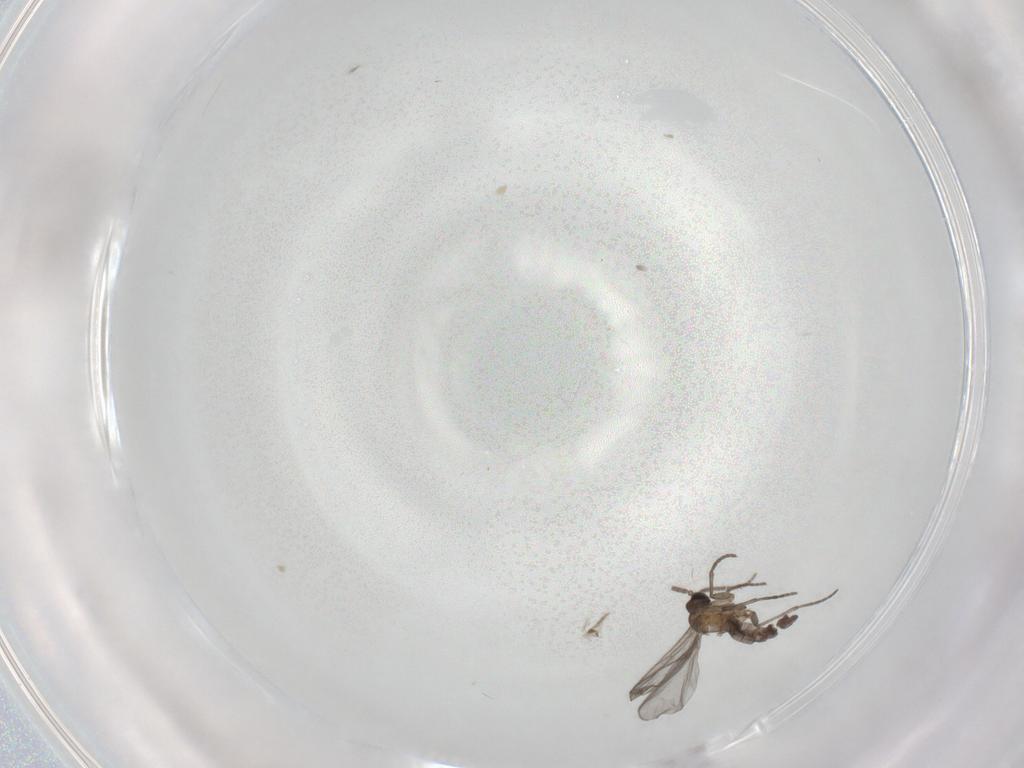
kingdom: Animalia
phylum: Arthropoda
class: Insecta
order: Diptera
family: Sciaridae
